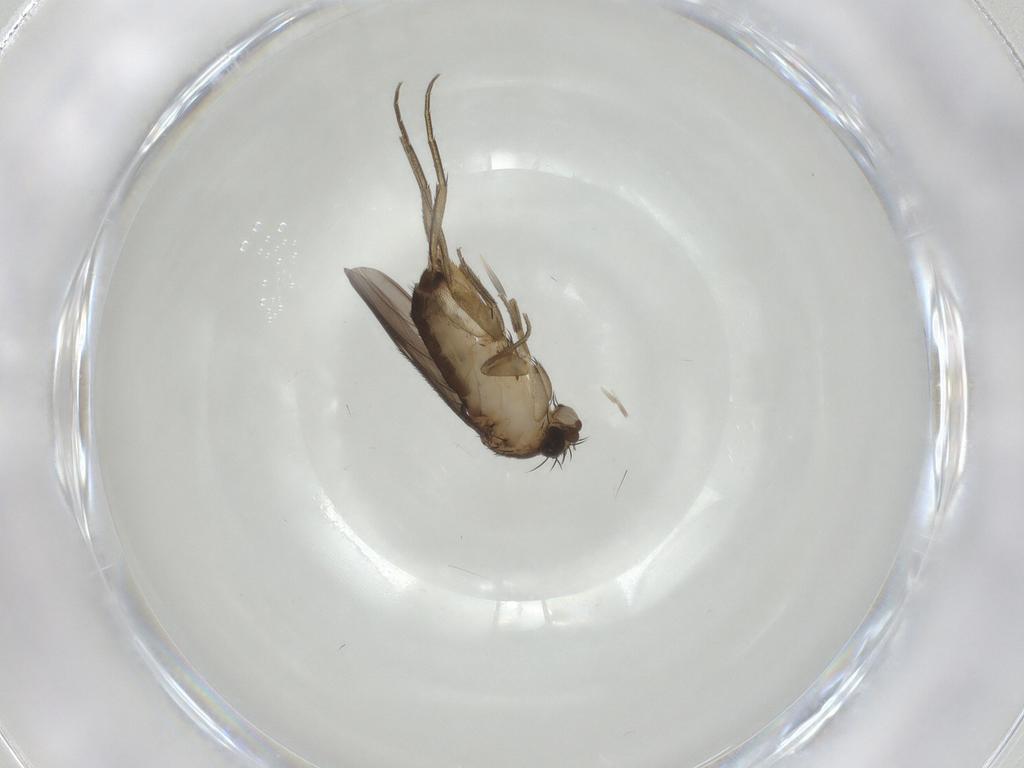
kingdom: Animalia
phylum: Arthropoda
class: Insecta
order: Diptera
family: Phoridae
